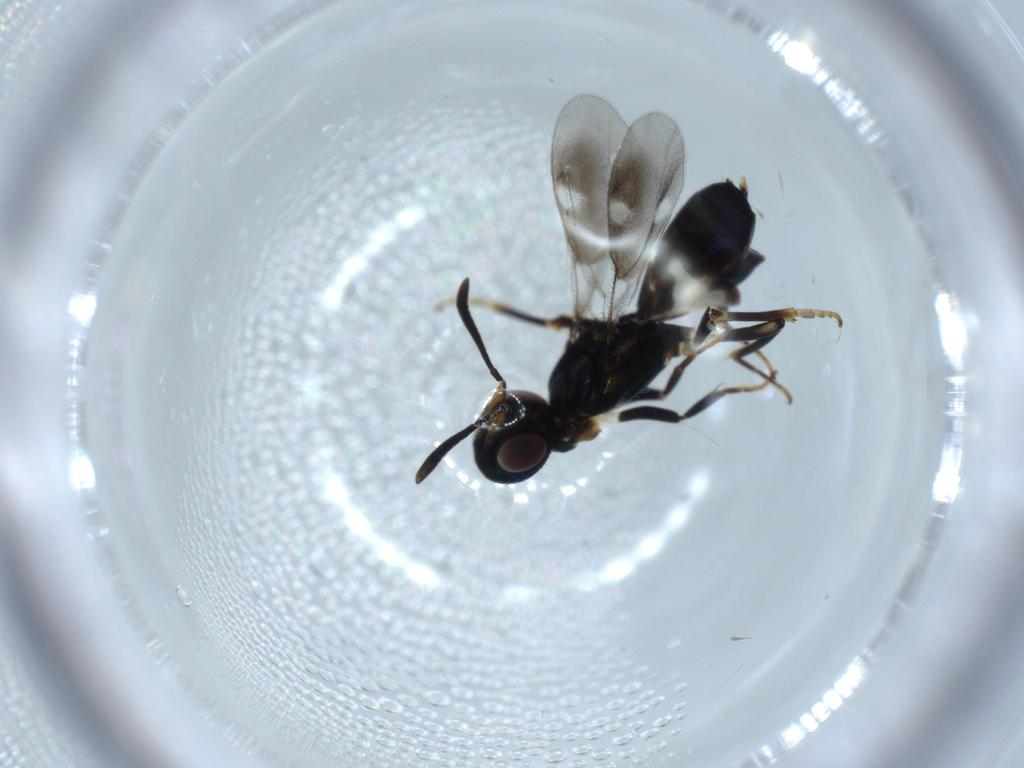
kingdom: Animalia
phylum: Arthropoda
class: Insecta
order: Hymenoptera
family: Eupelmidae
